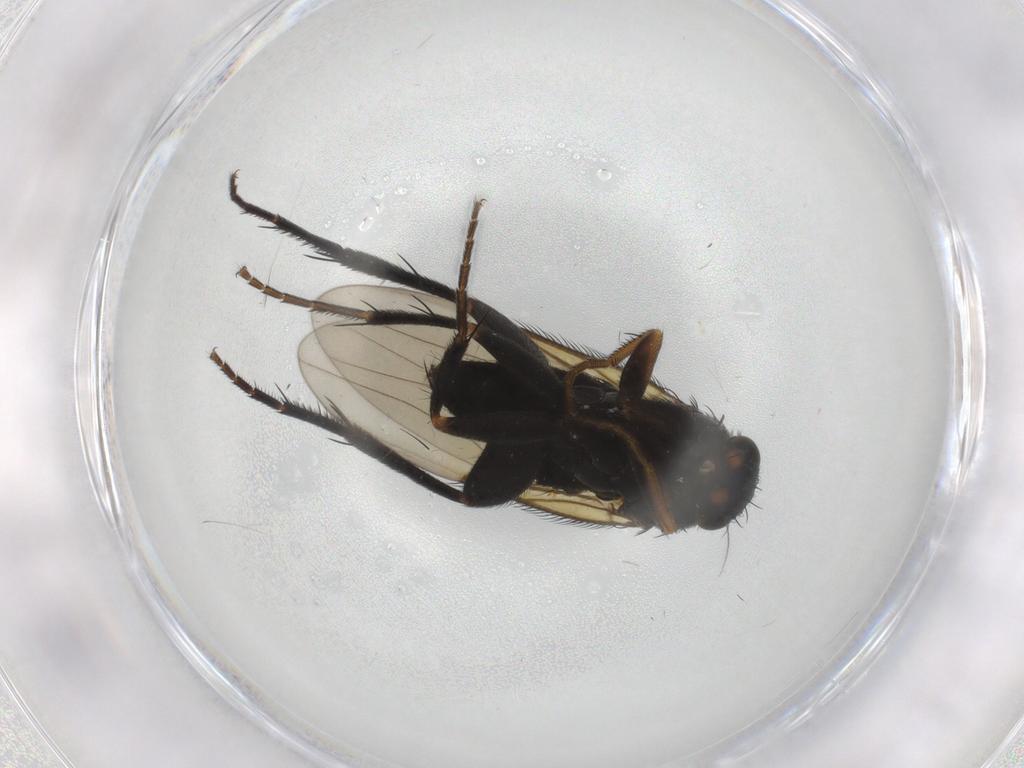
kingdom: Animalia
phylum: Arthropoda
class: Insecta
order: Diptera
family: Phoridae
